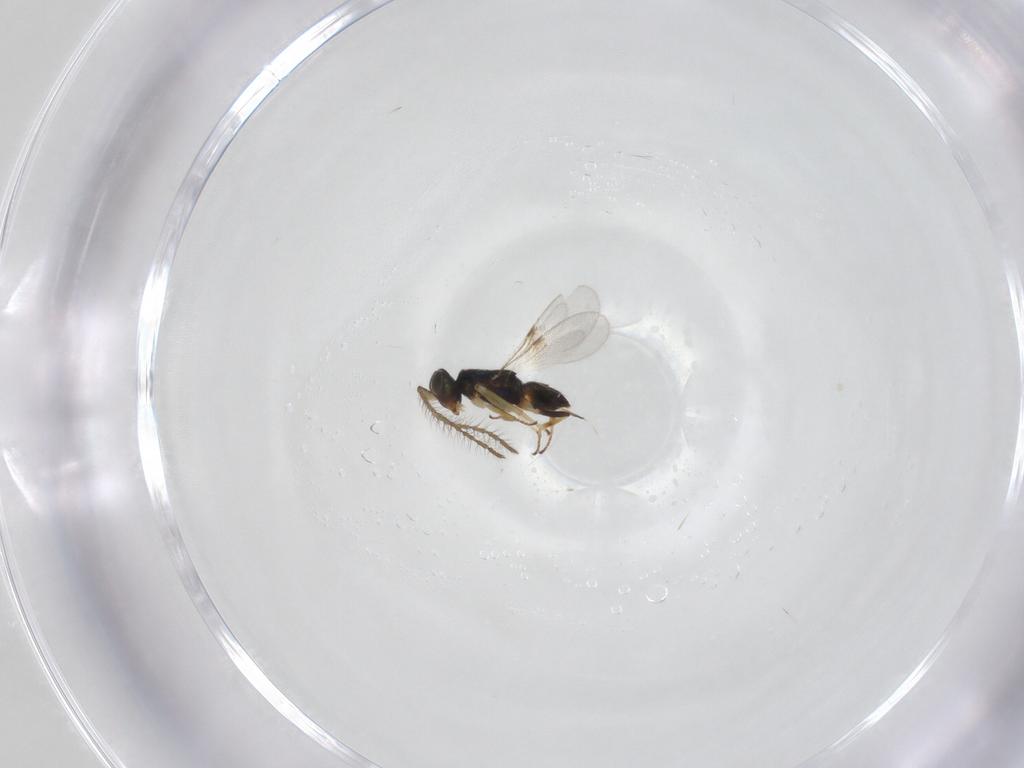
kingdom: Animalia
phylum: Arthropoda
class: Insecta
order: Hymenoptera
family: Encyrtidae
